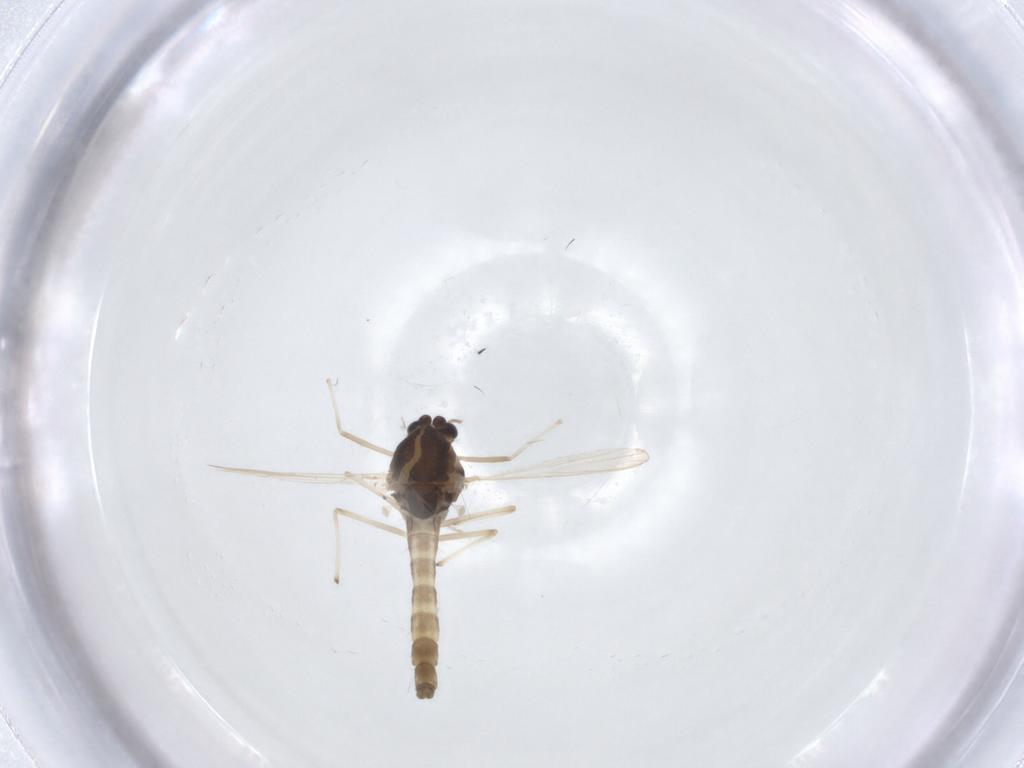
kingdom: Animalia
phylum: Arthropoda
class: Insecta
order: Diptera
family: Chironomidae
